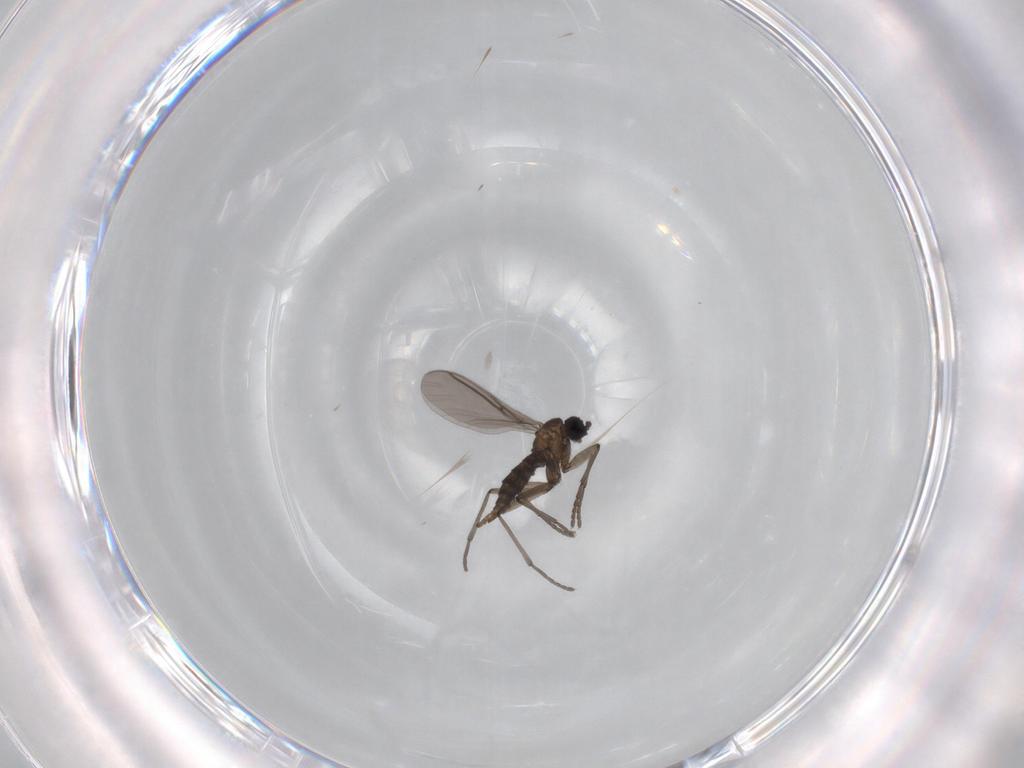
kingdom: Animalia
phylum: Arthropoda
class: Insecta
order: Diptera
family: Sciaridae
